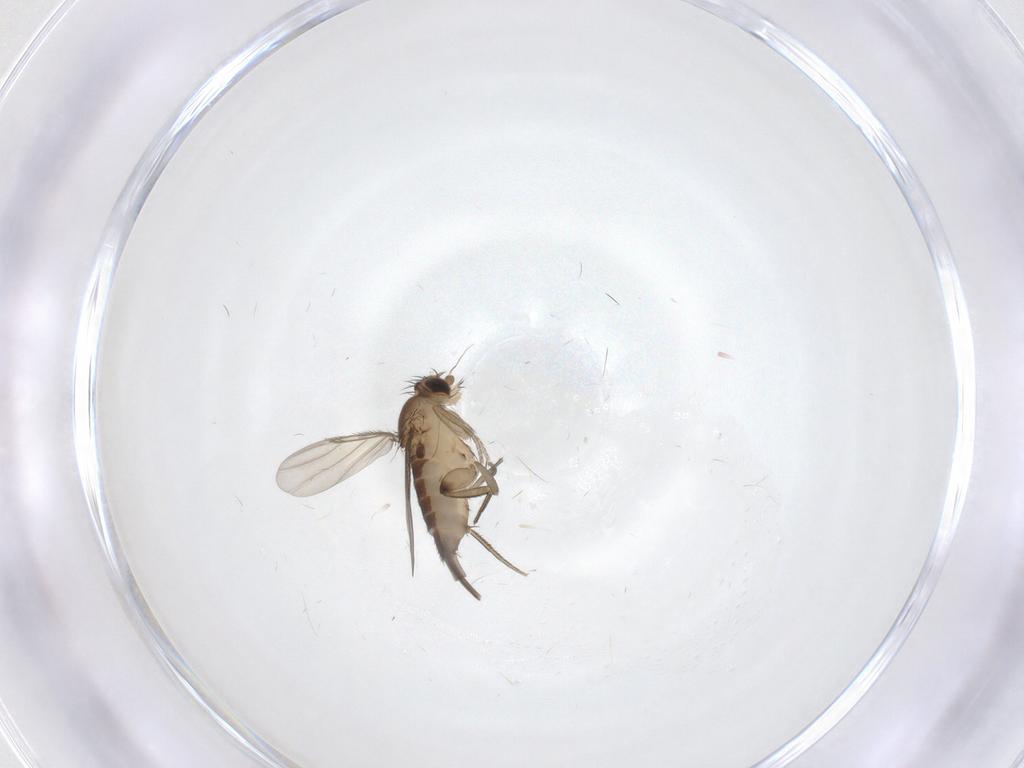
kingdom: Animalia
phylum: Arthropoda
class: Insecta
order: Diptera
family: Phoridae
